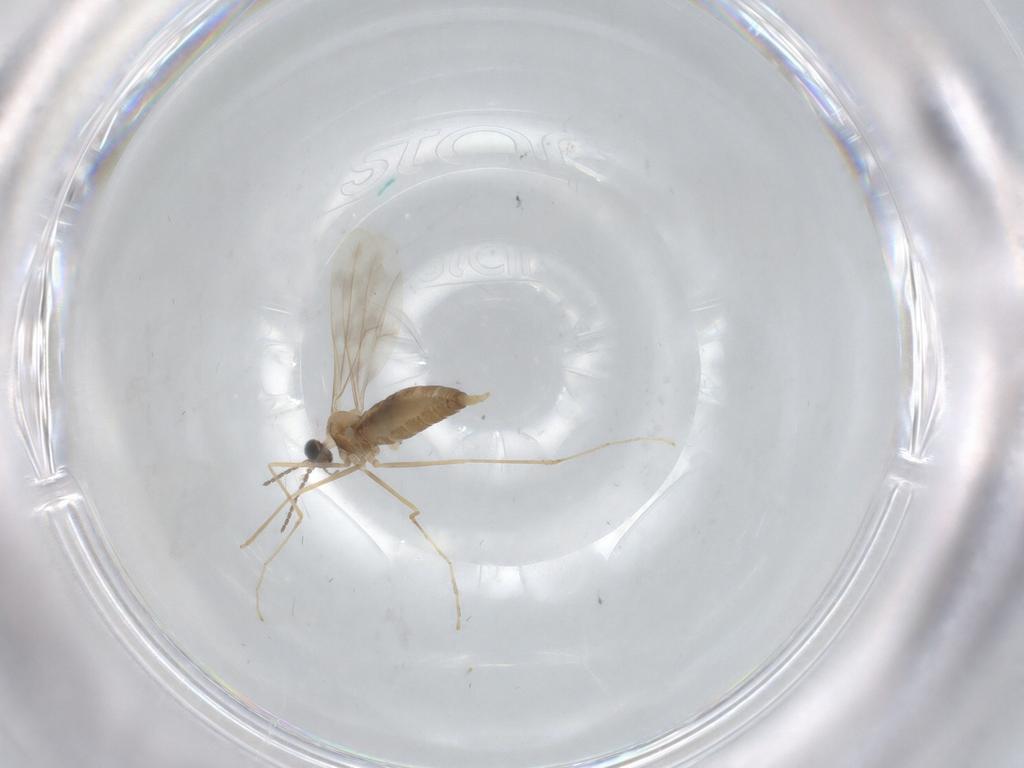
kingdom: Animalia
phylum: Arthropoda
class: Insecta
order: Diptera
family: Cecidomyiidae
